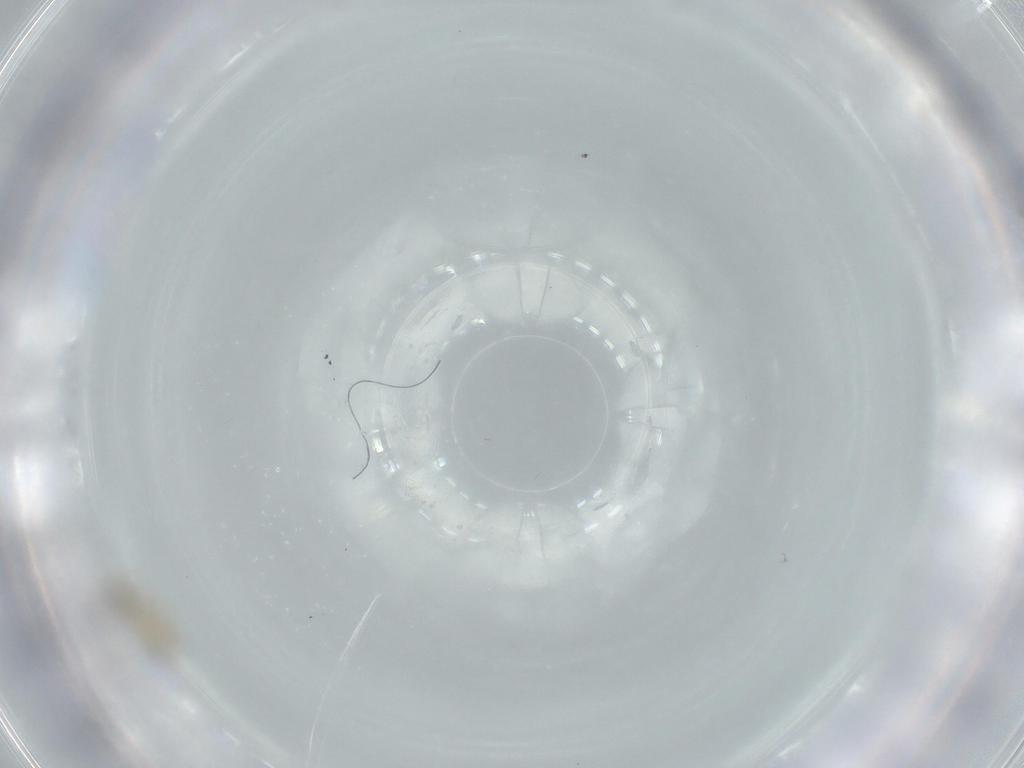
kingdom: Animalia
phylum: Arthropoda
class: Insecta
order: Diptera
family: Cecidomyiidae
